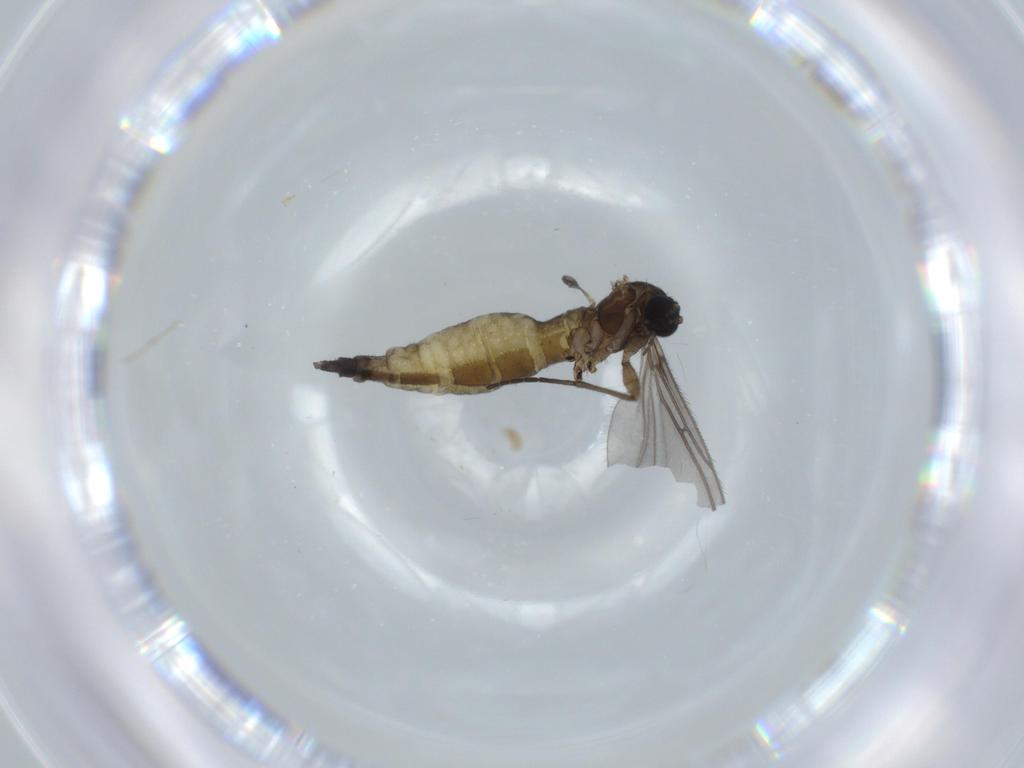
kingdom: Animalia
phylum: Arthropoda
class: Insecta
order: Diptera
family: Sciaridae
